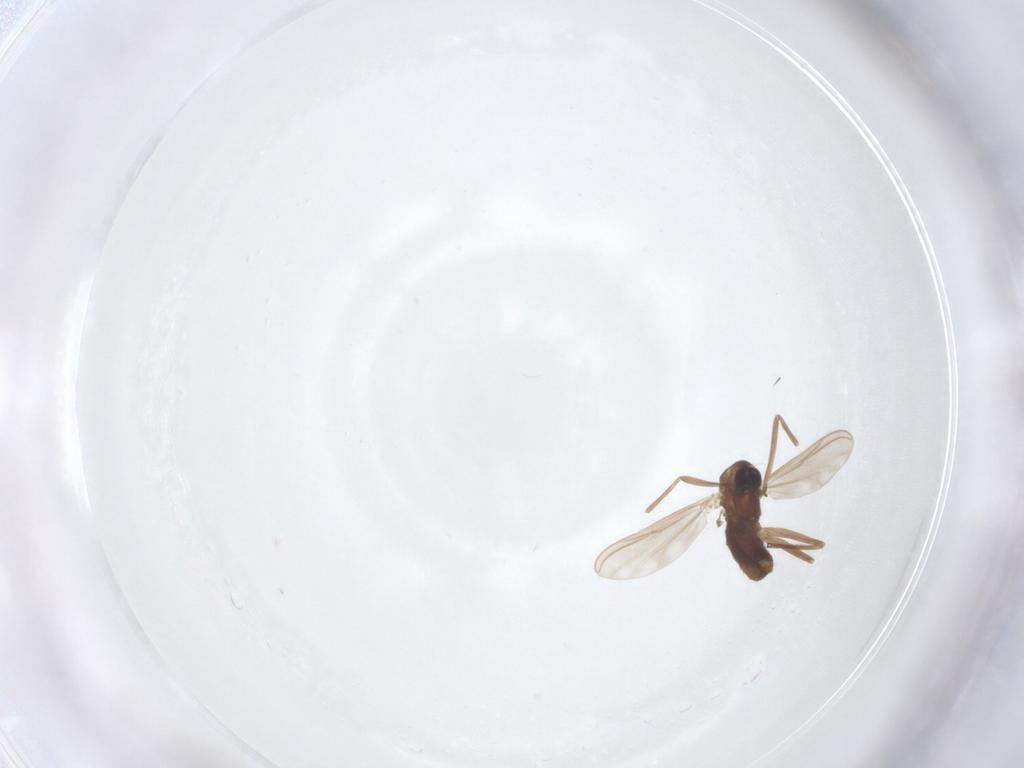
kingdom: Animalia
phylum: Arthropoda
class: Insecta
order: Diptera
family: Chironomidae
